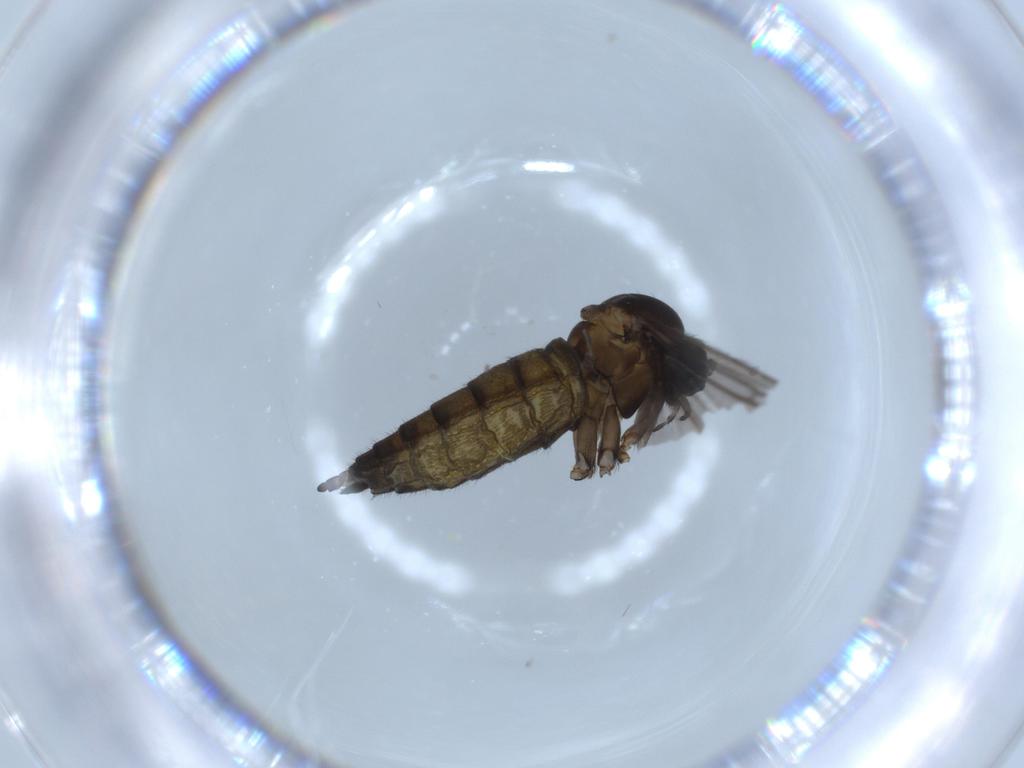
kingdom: Animalia
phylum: Arthropoda
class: Insecta
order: Diptera
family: Sciaridae
